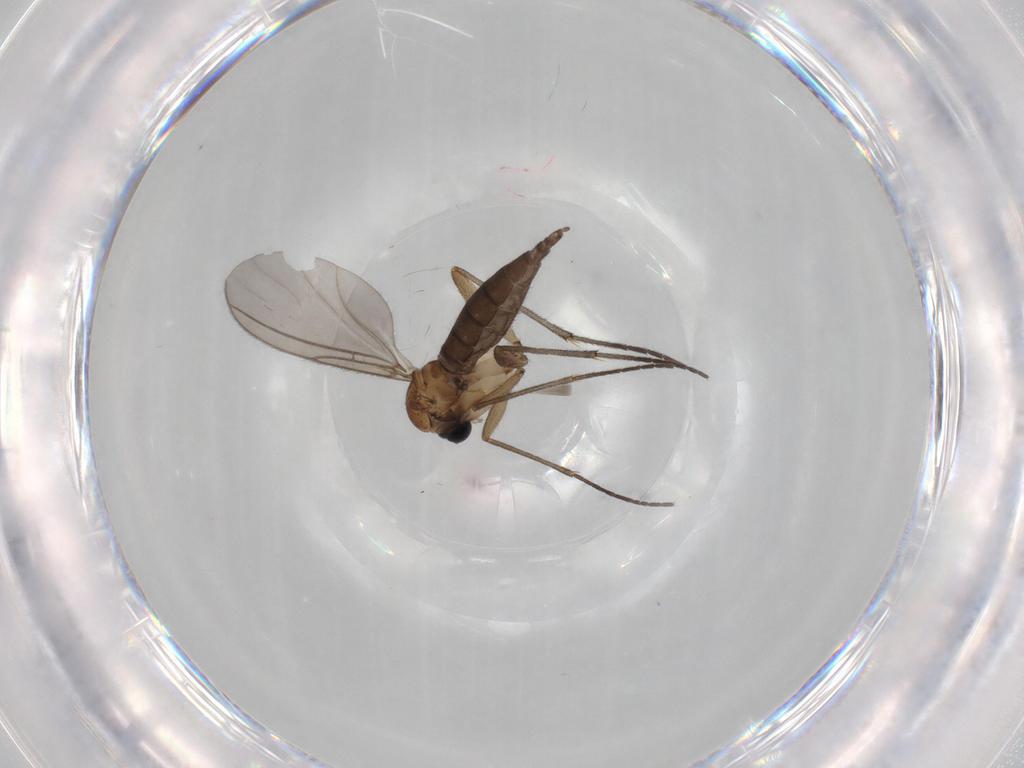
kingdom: Animalia
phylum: Arthropoda
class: Insecta
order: Diptera
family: Sciaridae
